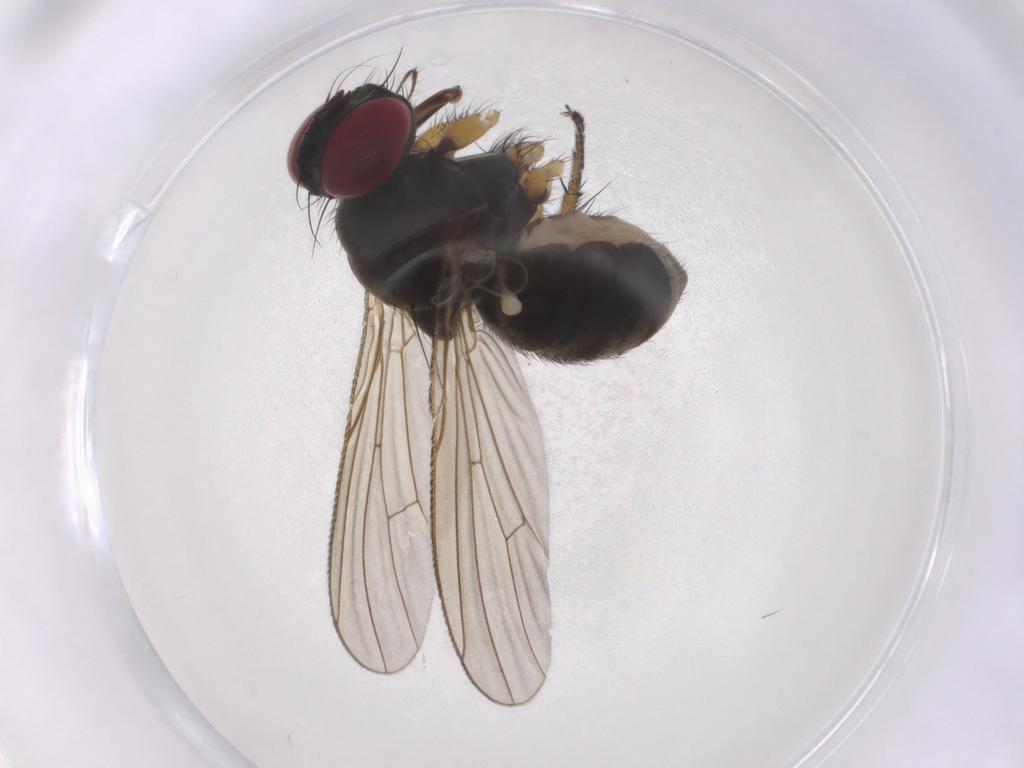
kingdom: Animalia
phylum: Arthropoda
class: Insecta
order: Diptera
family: Muscidae
